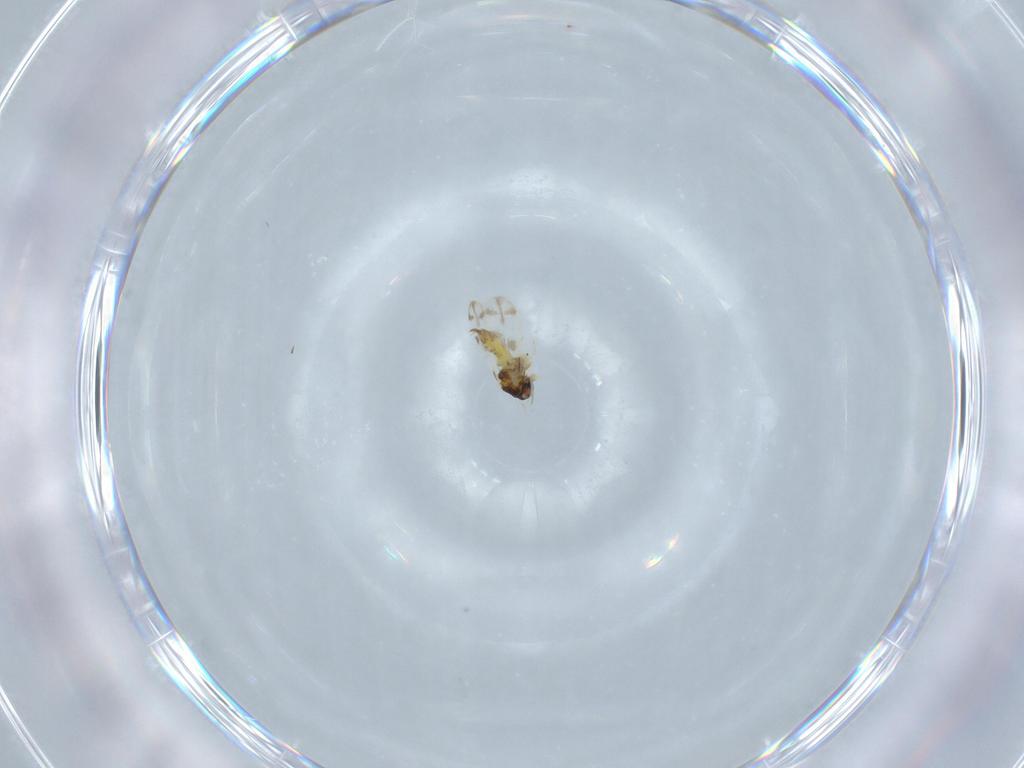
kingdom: Animalia
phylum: Arthropoda
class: Insecta
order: Hemiptera
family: Aleyrodidae
